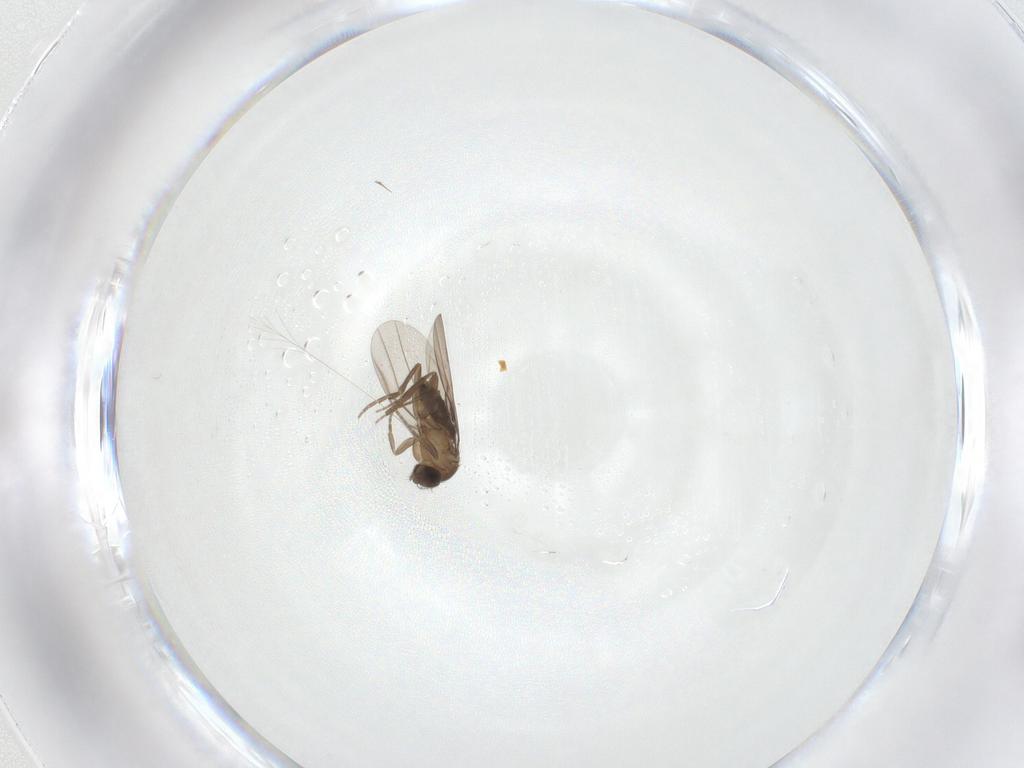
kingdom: Animalia
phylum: Arthropoda
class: Insecta
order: Diptera
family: Limoniidae
